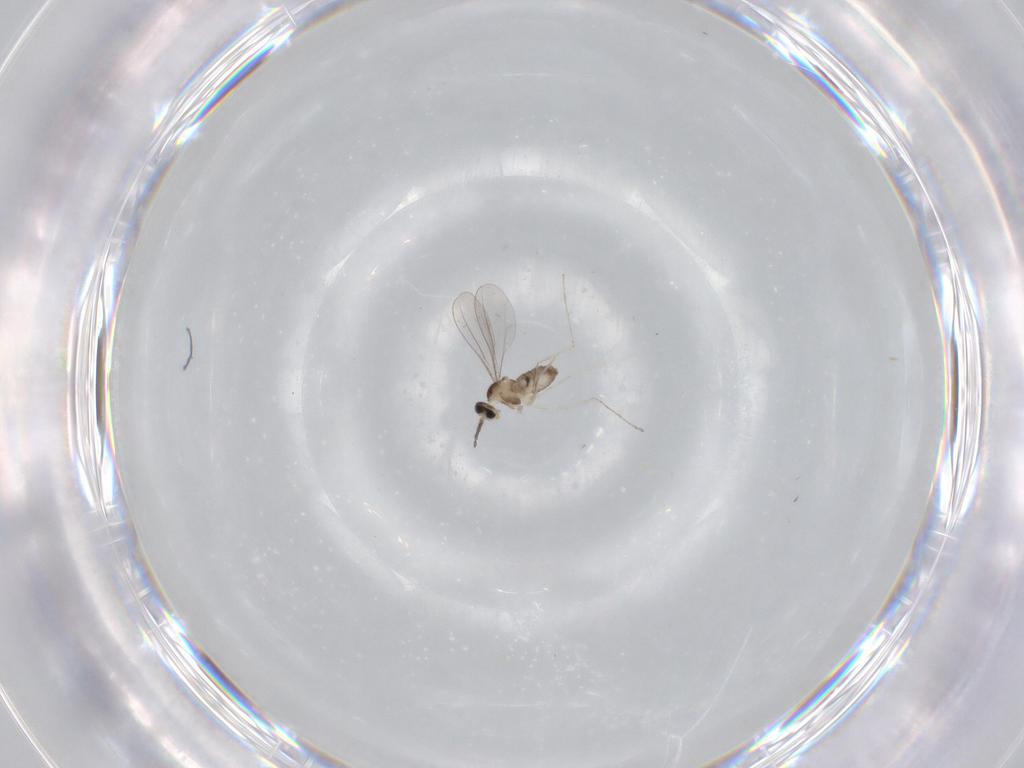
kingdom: Animalia
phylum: Arthropoda
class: Insecta
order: Diptera
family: Cecidomyiidae
